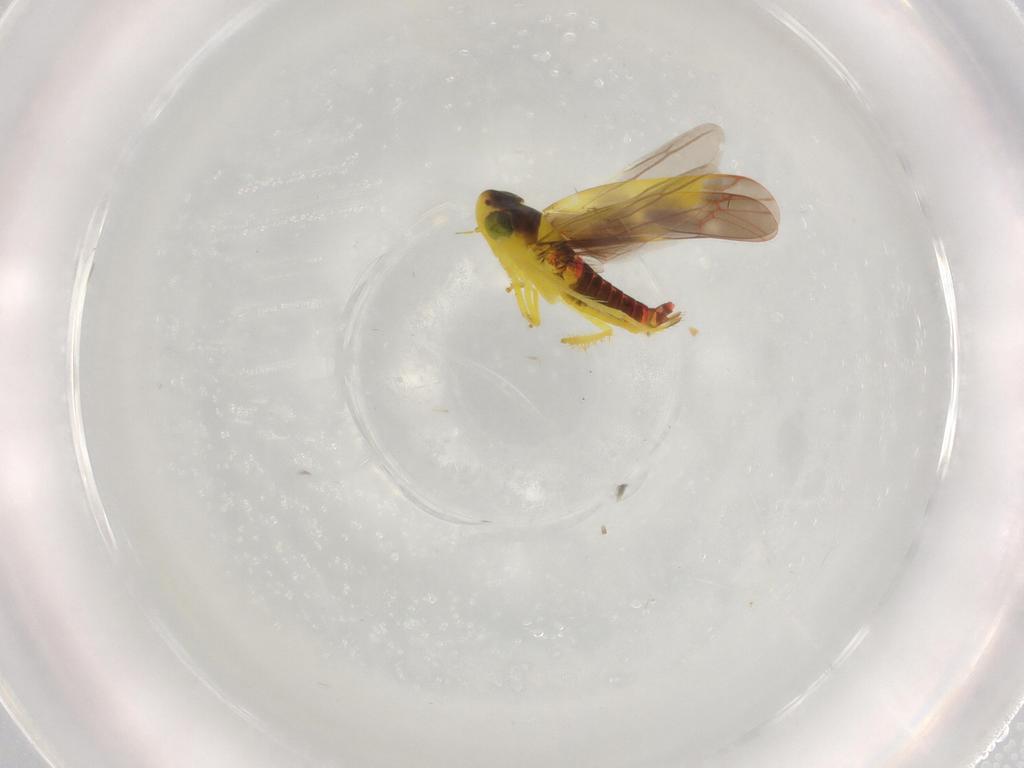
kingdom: Animalia
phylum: Arthropoda
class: Insecta
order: Hemiptera
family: Cicadellidae
